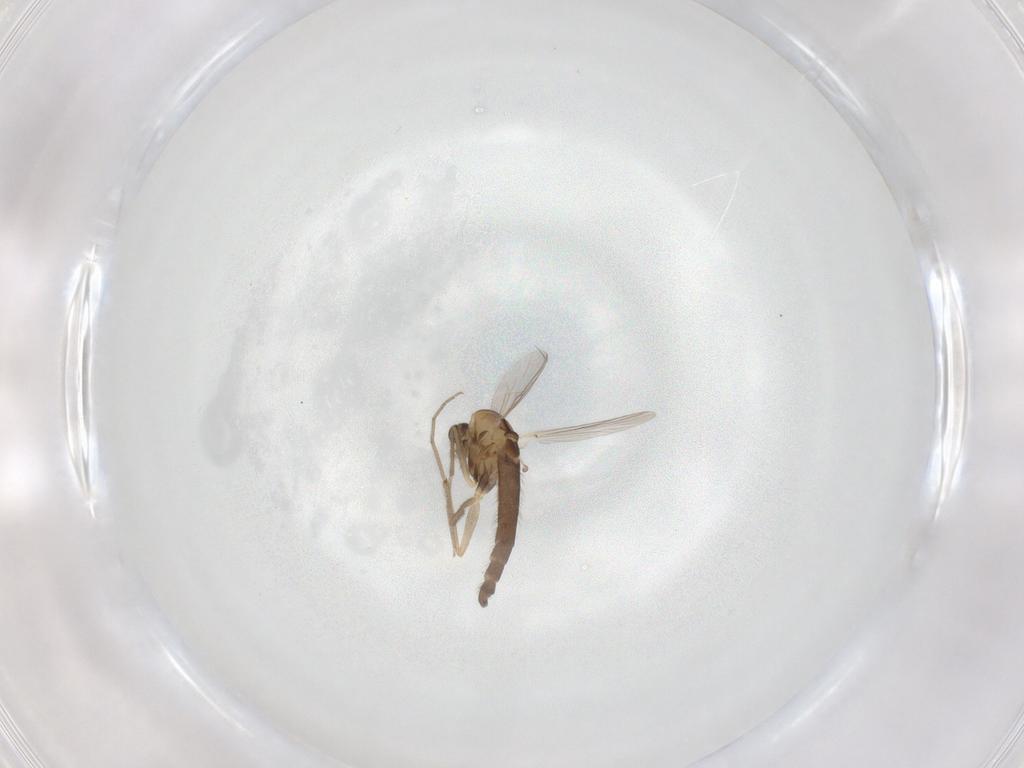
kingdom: Animalia
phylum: Arthropoda
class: Insecta
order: Diptera
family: Chironomidae
